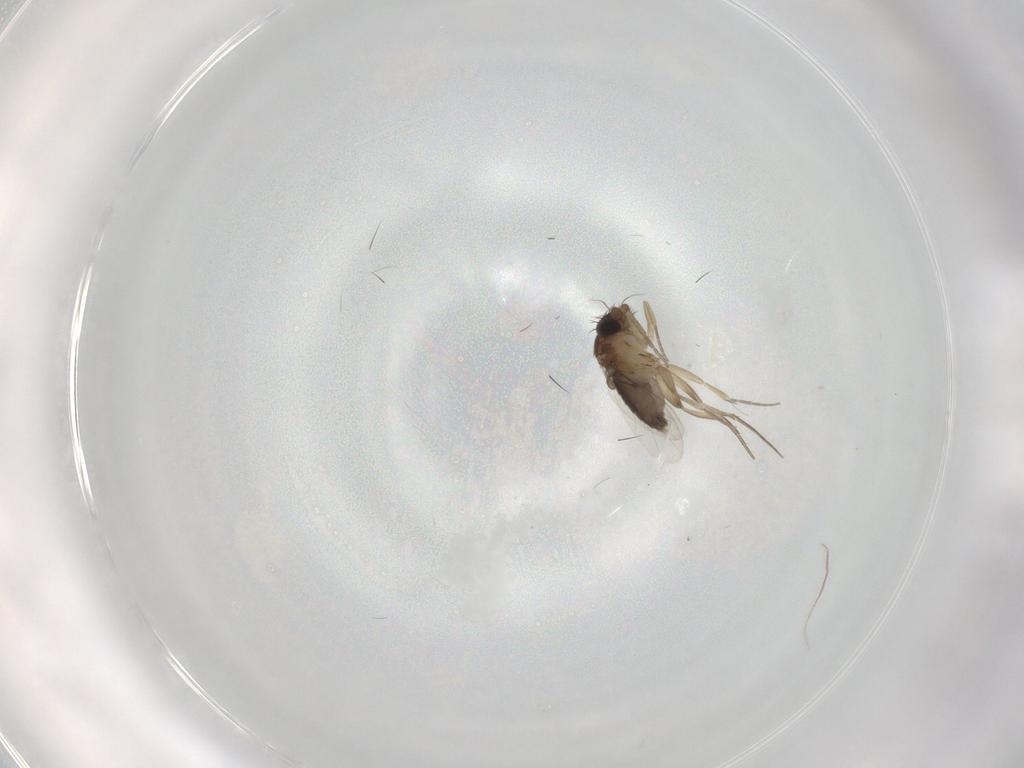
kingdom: Animalia
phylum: Arthropoda
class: Insecta
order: Diptera
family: Phoridae
